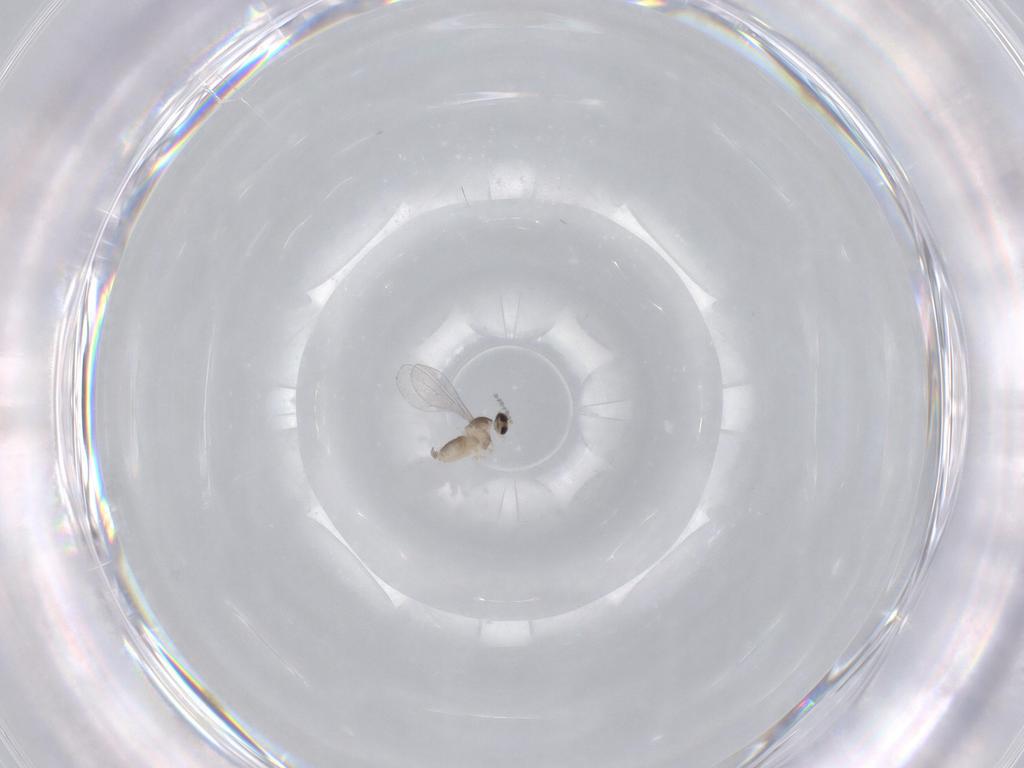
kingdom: Animalia
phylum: Arthropoda
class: Insecta
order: Diptera
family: Cecidomyiidae
